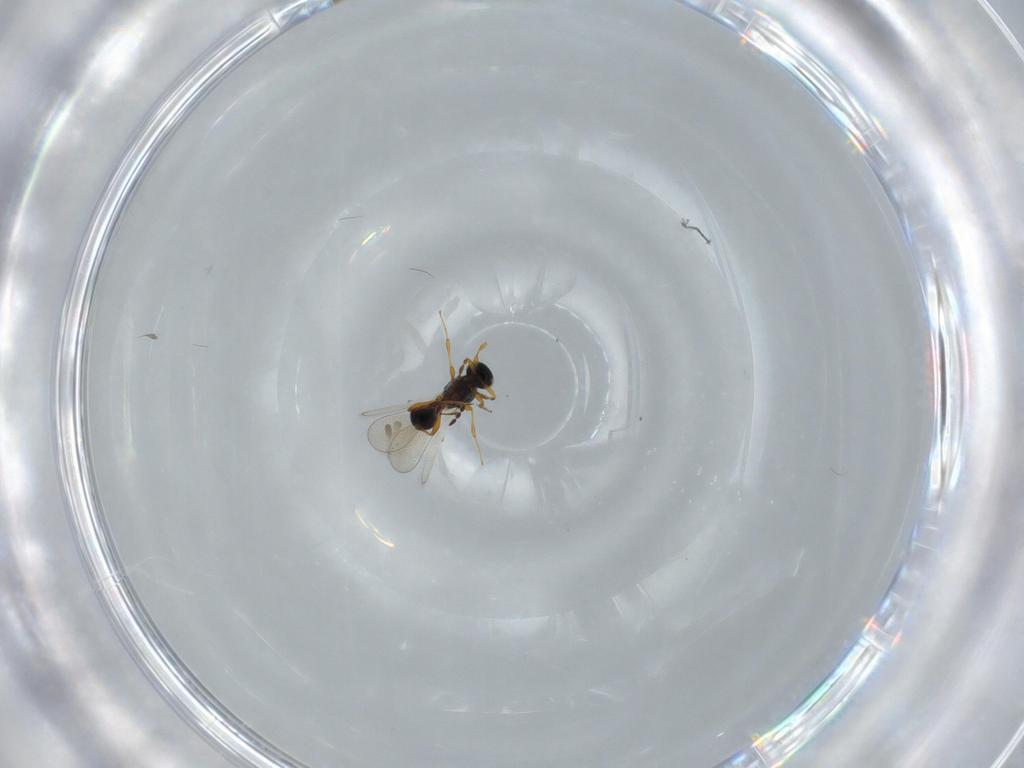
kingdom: Animalia
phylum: Arthropoda
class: Insecta
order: Hymenoptera
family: Platygastridae
